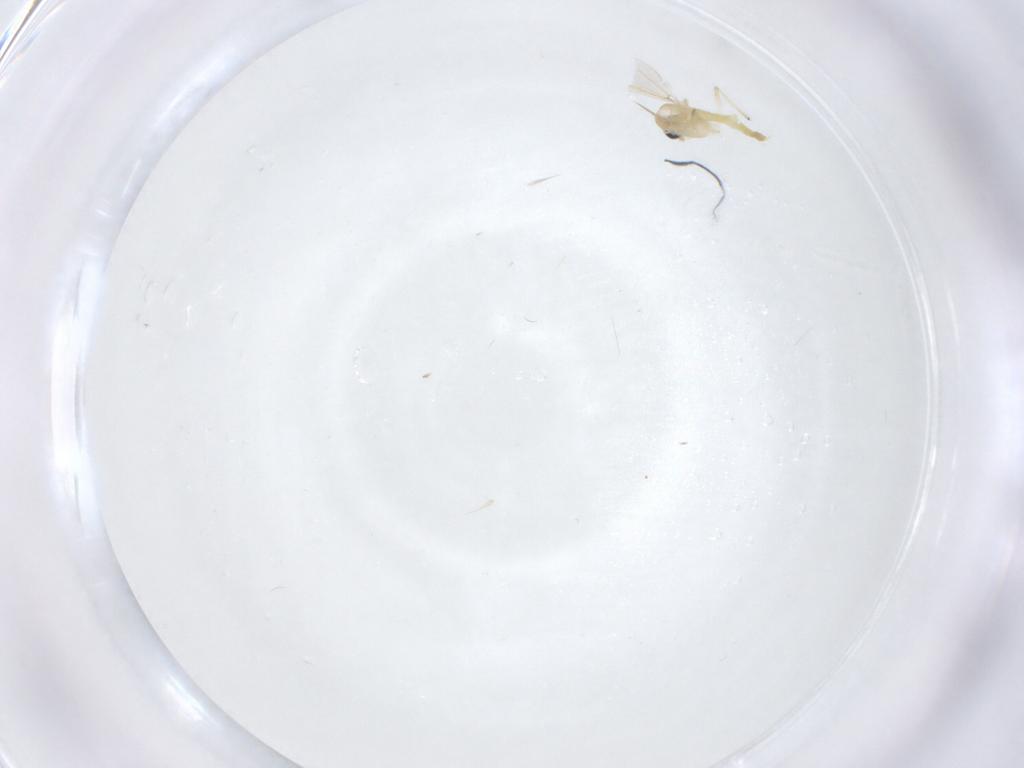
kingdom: Animalia
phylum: Arthropoda
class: Insecta
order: Diptera
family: Chironomidae
